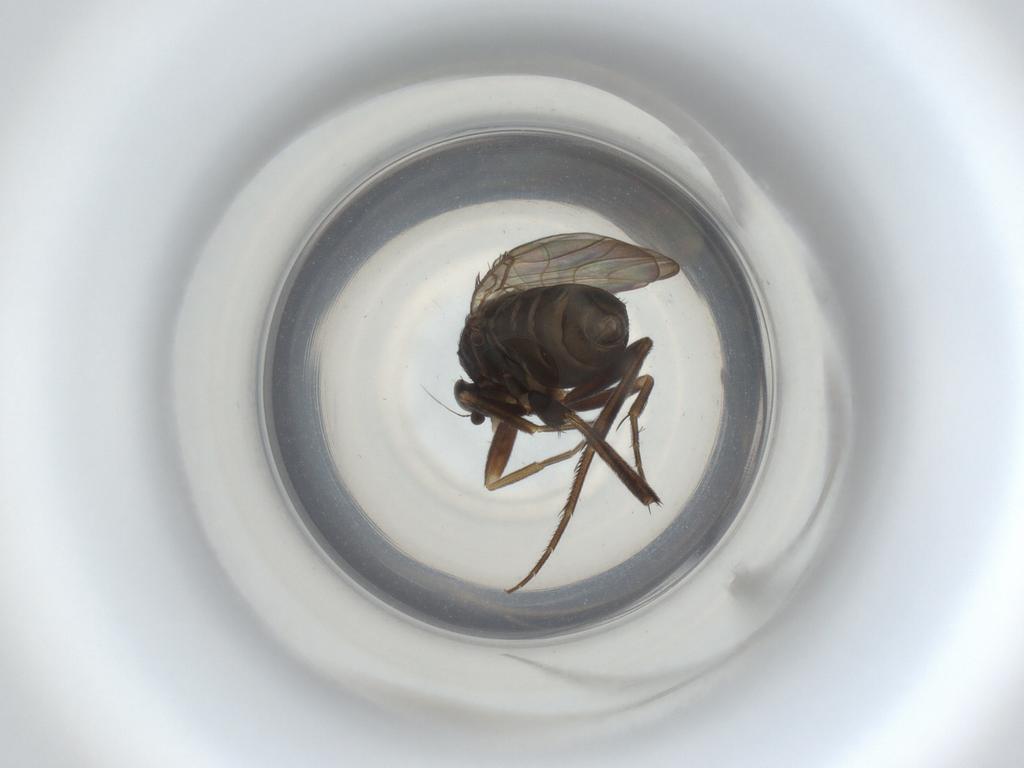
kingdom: Animalia
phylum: Arthropoda
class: Insecta
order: Diptera
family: Phoridae
